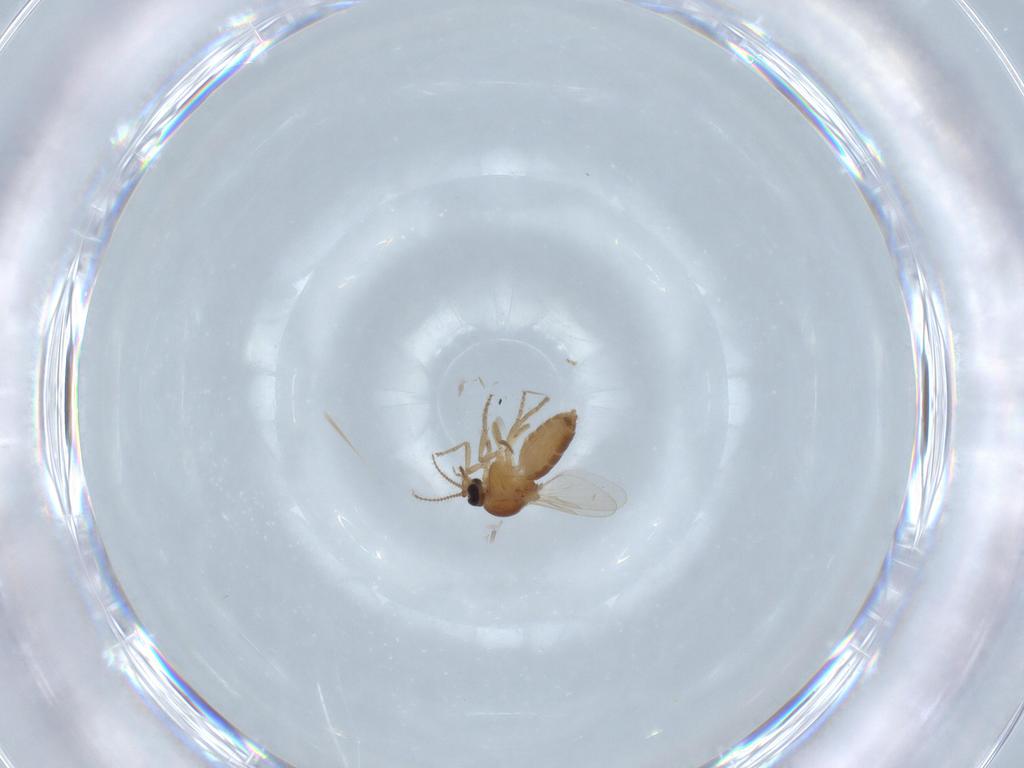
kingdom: Animalia
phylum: Arthropoda
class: Insecta
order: Diptera
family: Ceratopogonidae
